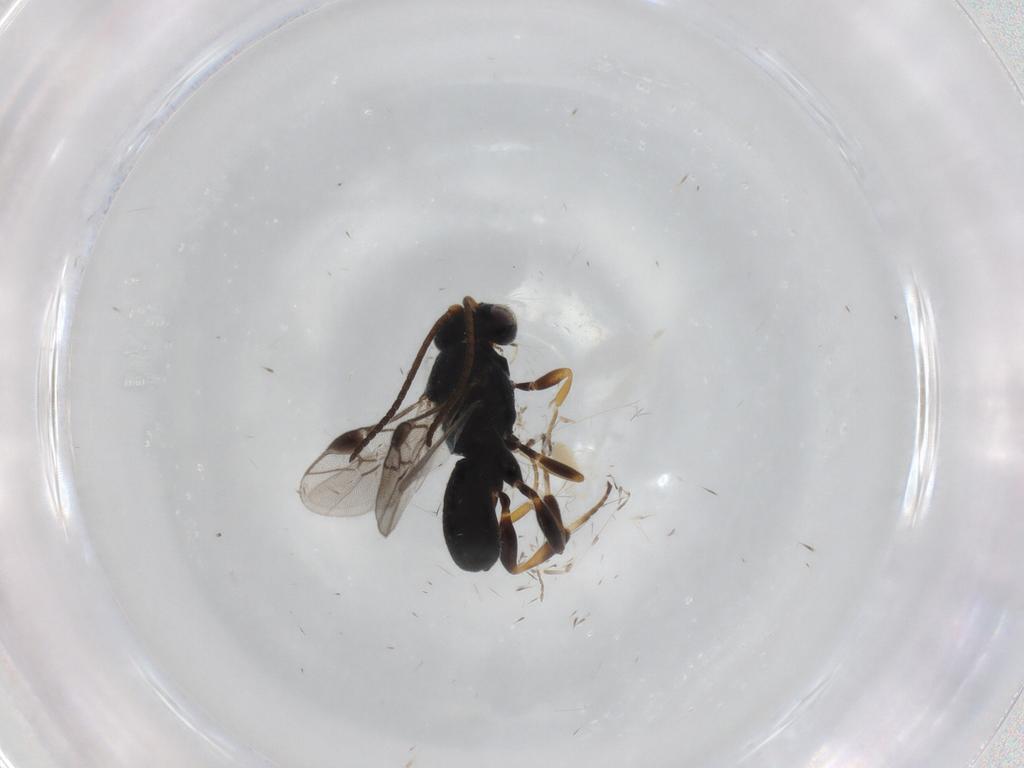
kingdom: Animalia
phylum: Arthropoda
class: Insecta
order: Hymenoptera
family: Braconidae
